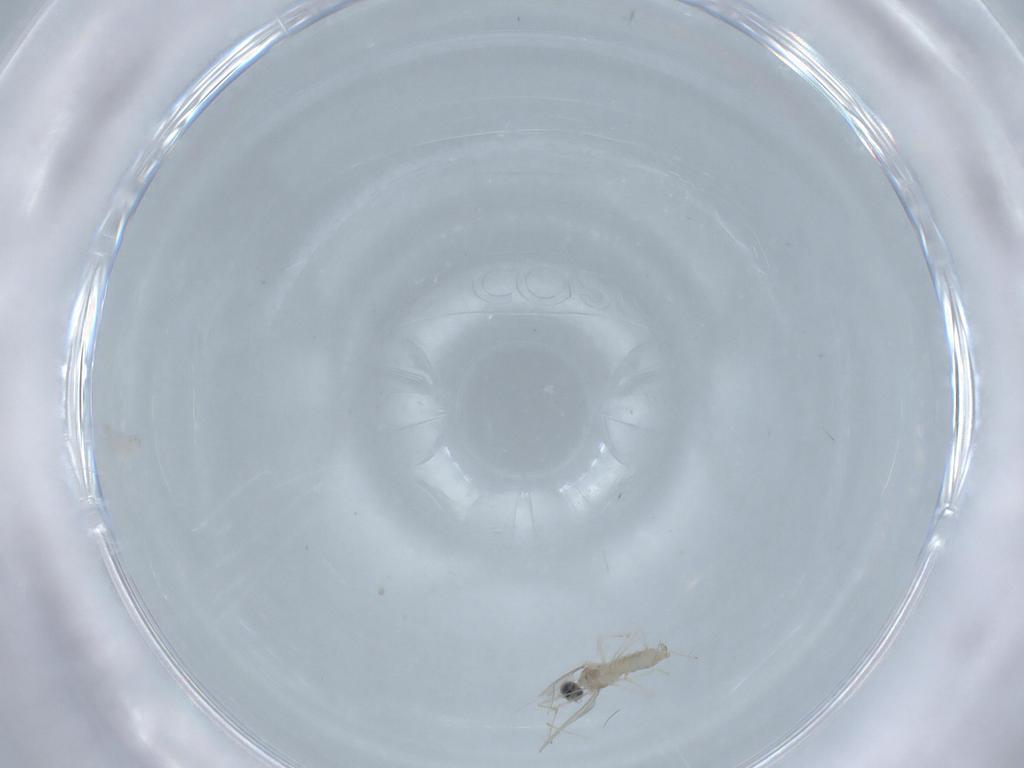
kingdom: Animalia
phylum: Arthropoda
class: Insecta
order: Diptera
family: Cecidomyiidae
